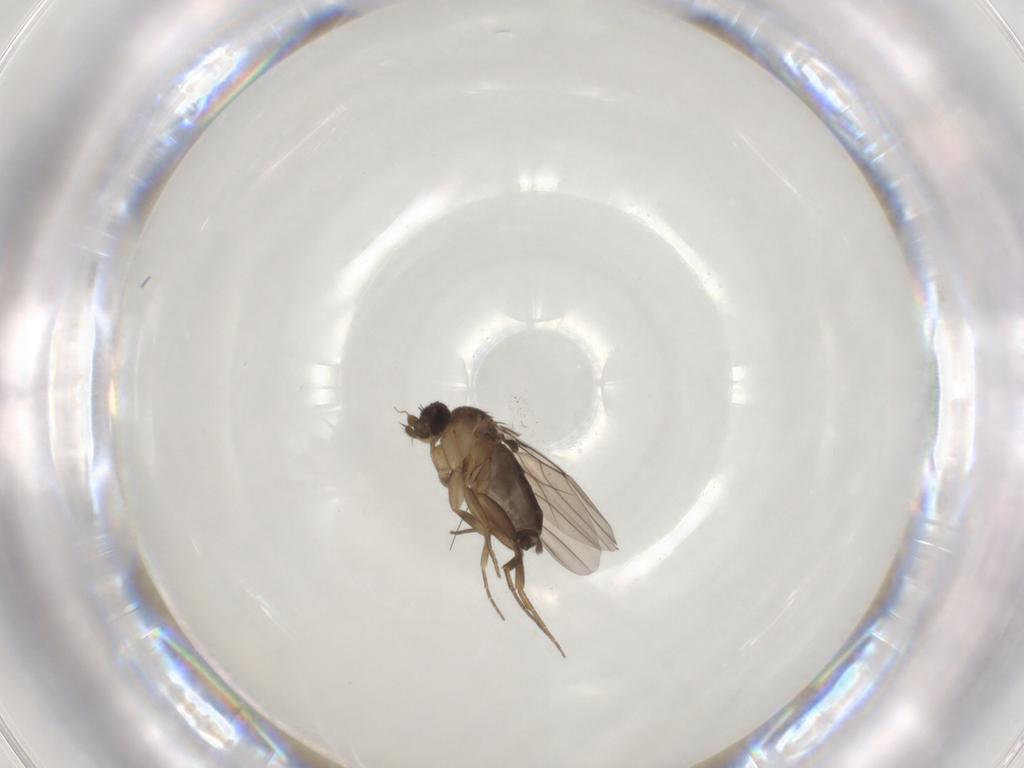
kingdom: Animalia
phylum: Arthropoda
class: Insecta
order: Diptera
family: Phoridae
